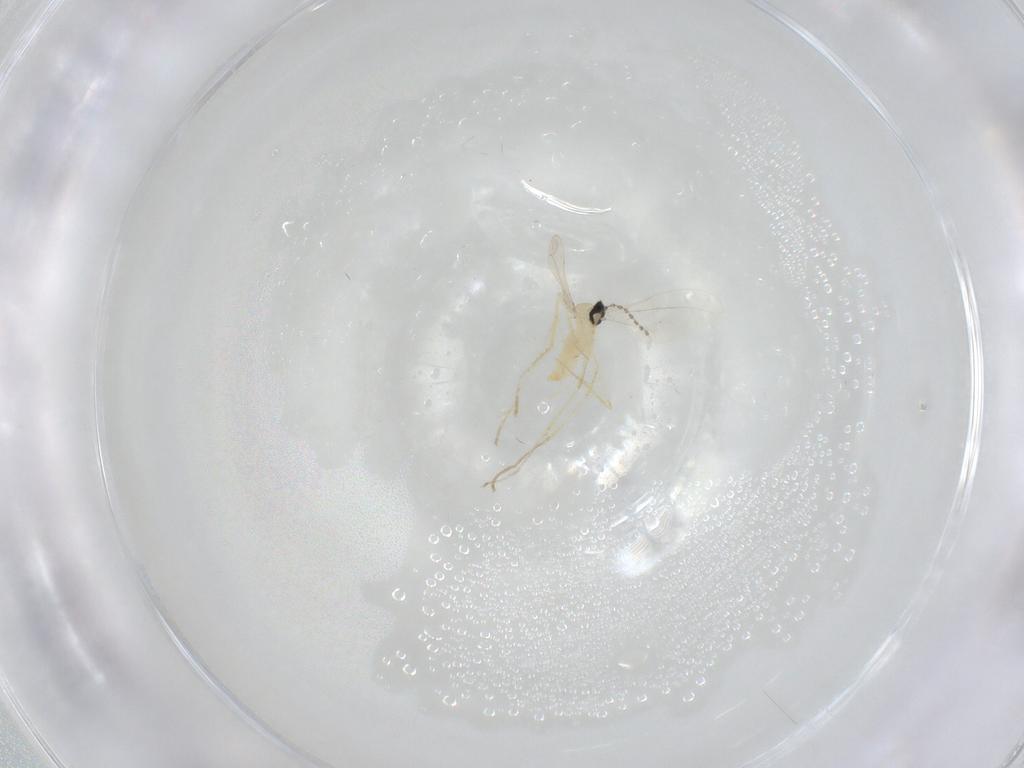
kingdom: Animalia
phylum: Arthropoda
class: Insecta
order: Diptera
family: Cecidomyiidae
